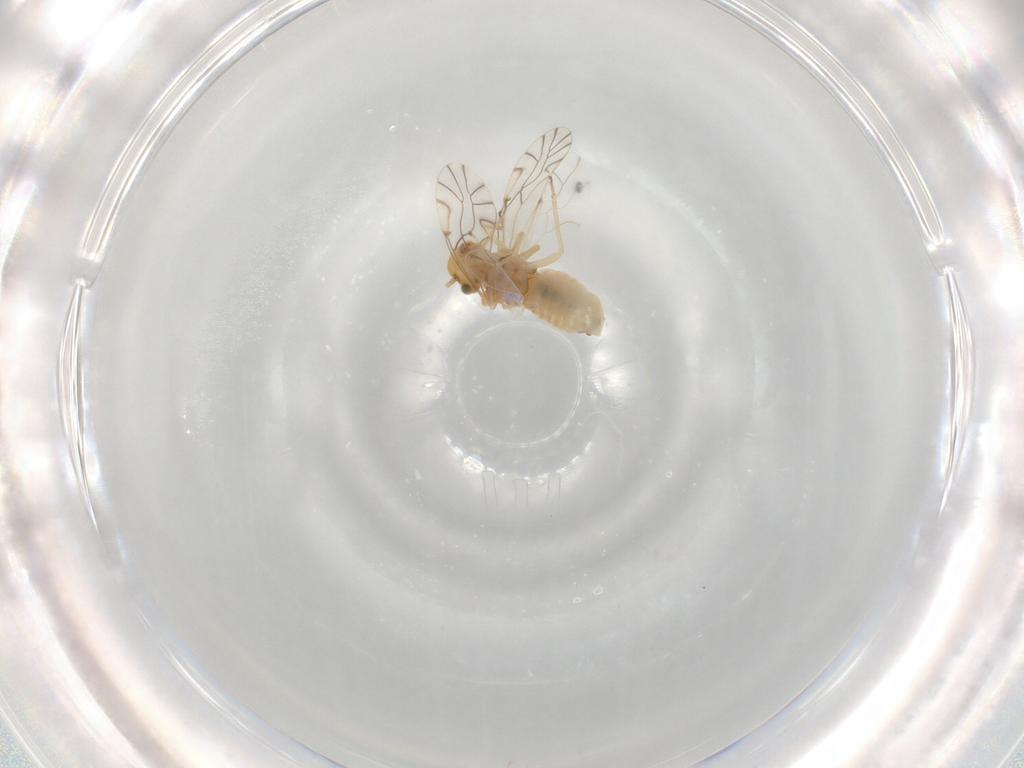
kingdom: Animalia
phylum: Arthropoda
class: Insecta
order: Psocodea
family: Lachesillidae
